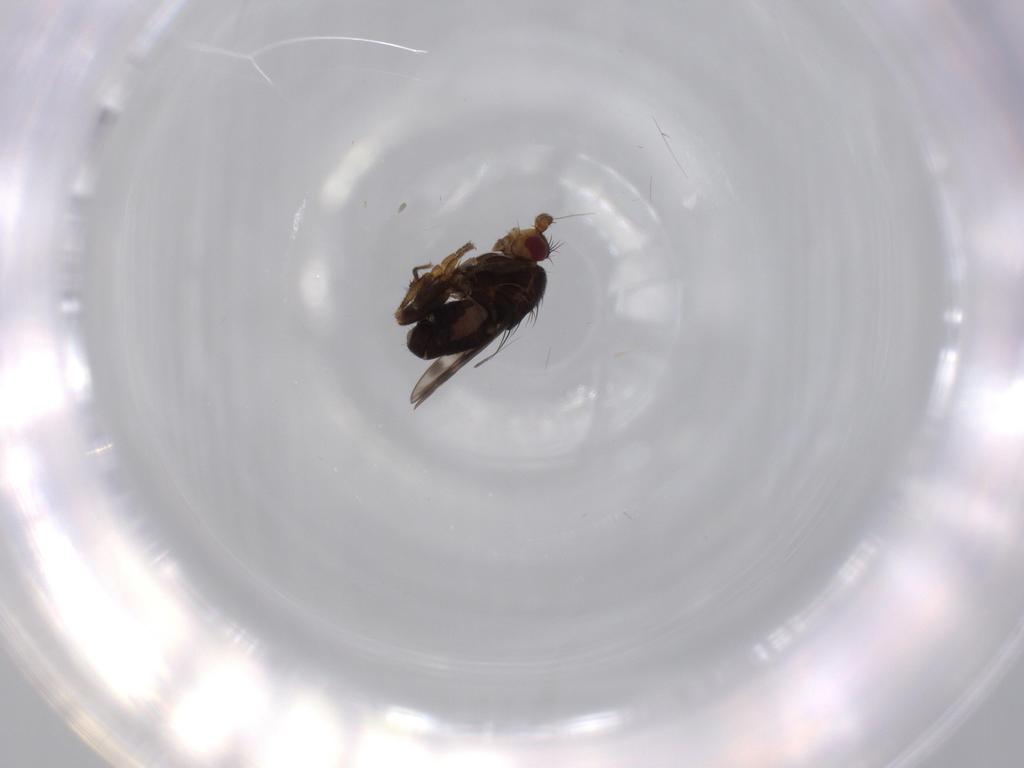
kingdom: Animalia
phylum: Arthropoda
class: Insecta
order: Diptera
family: Sphaeroceridae
